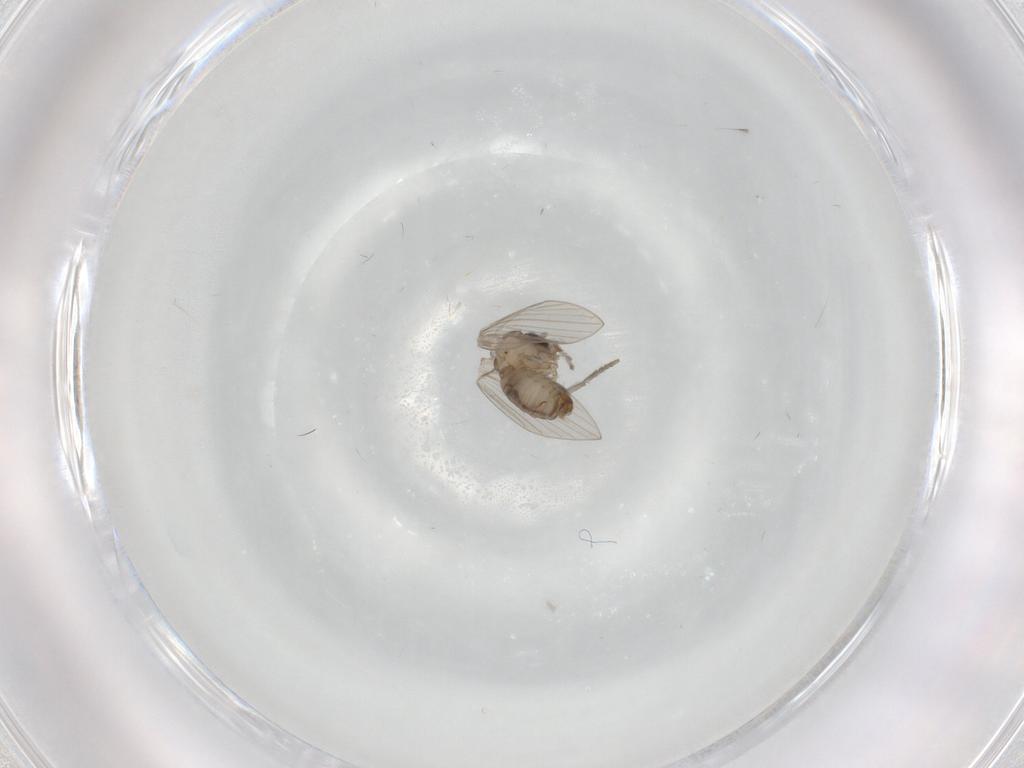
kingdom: Animalia
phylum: Arthropoda
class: Insecta
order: Diptera
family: Psychodidae
